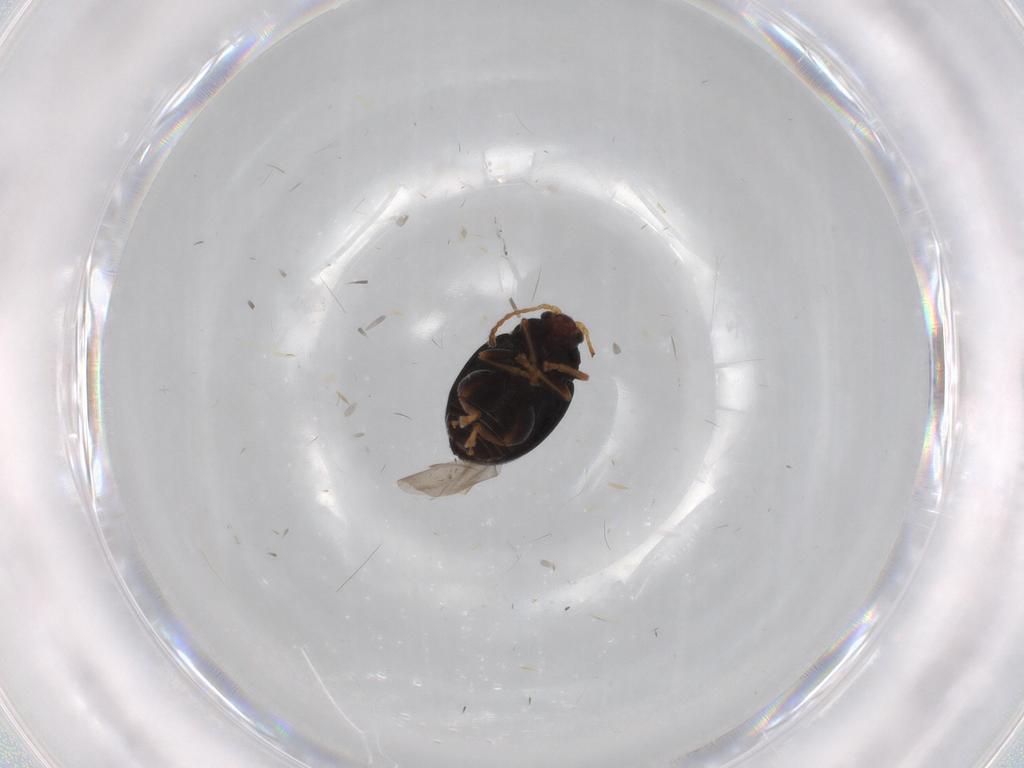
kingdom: Animalia
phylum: Arthropoda
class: Insecta
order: Coleoptera
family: Chrysomelidae
